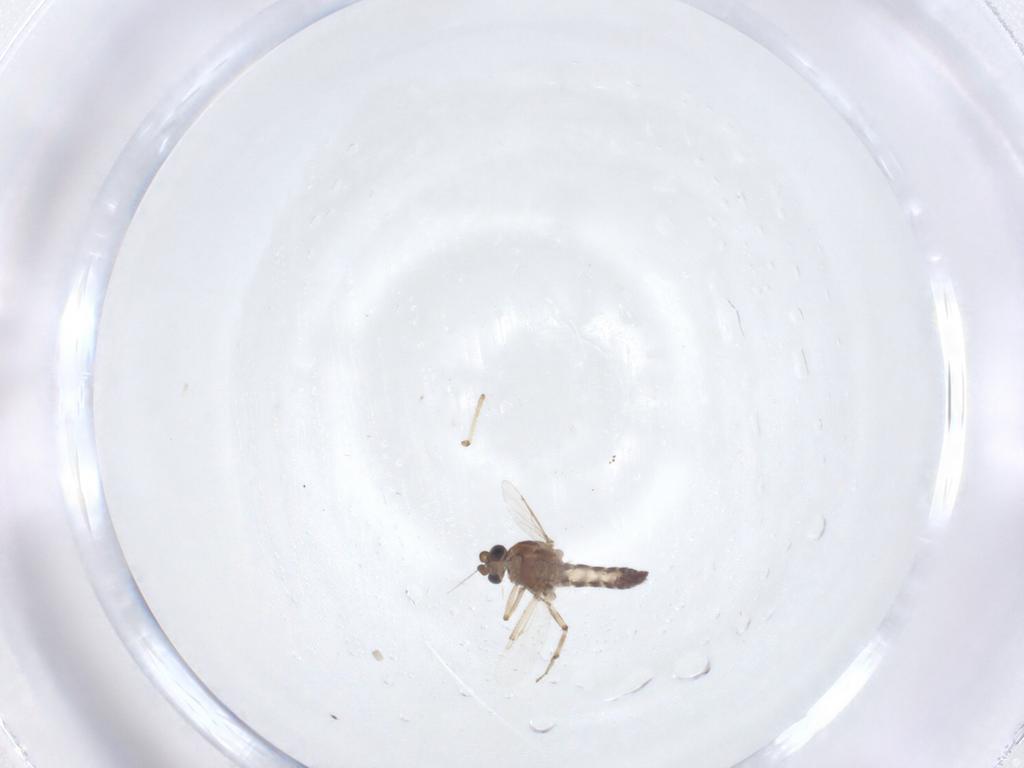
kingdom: Animalia
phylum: Arthropoda
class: Insecta
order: Diptera
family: Ceratopogonidae
